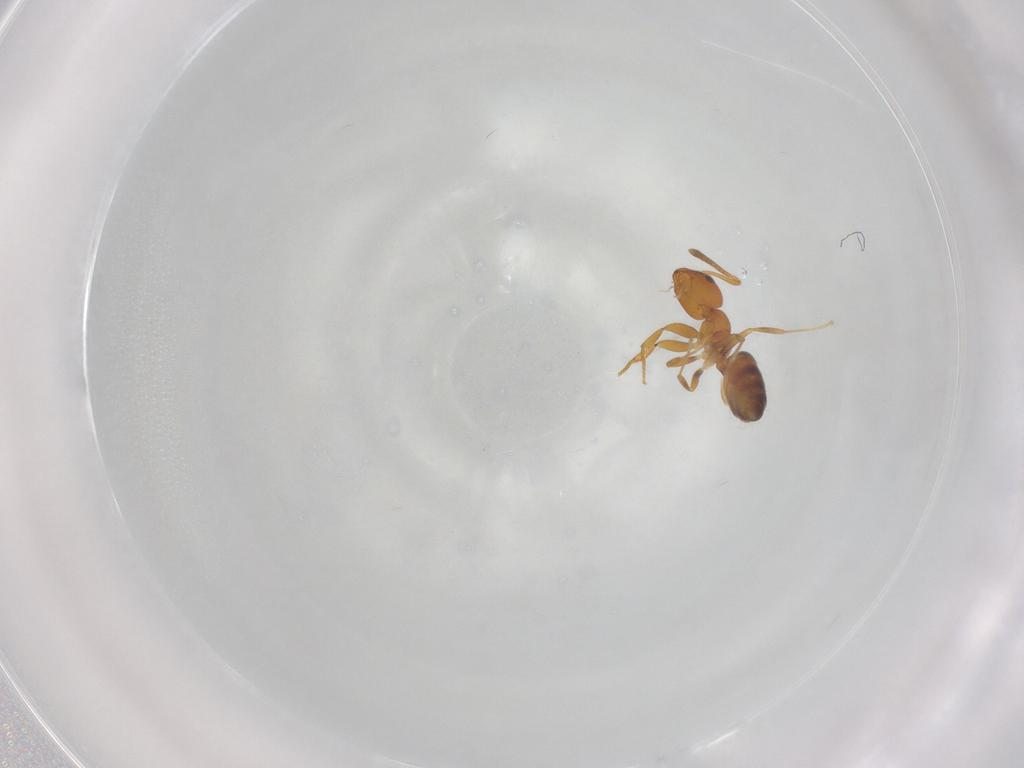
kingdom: Animalia
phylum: Arthropoda
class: Insecta
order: Hymenoptera
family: Formicidae
